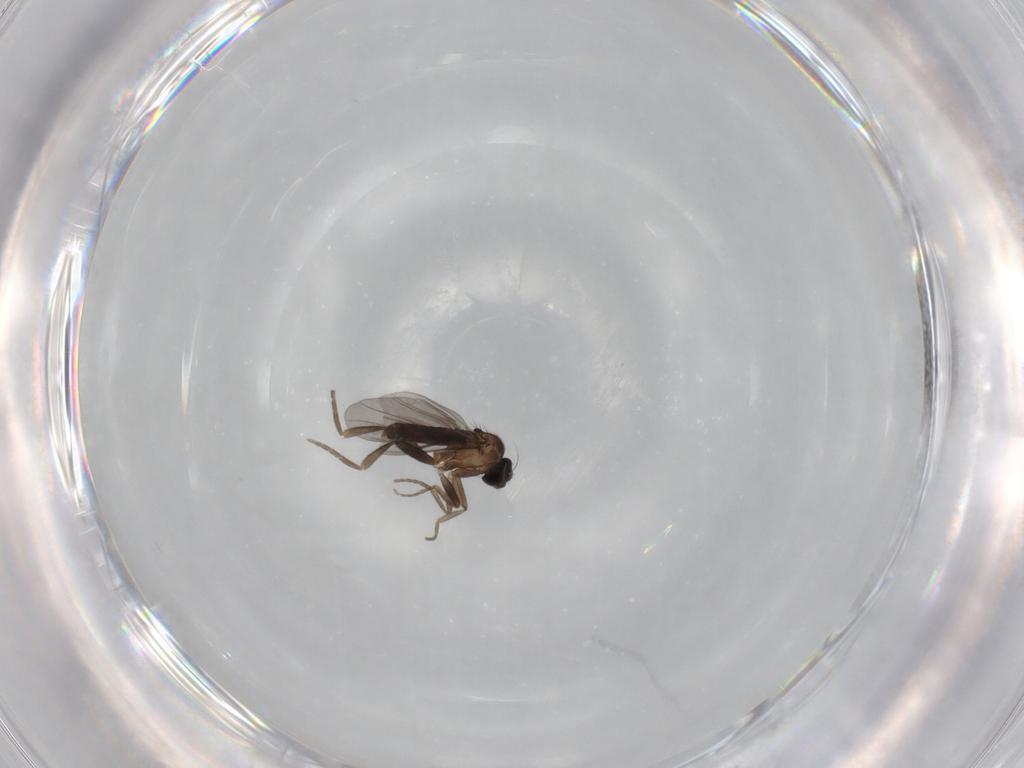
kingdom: Animalia
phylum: Arthropoda
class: Insecta
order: Diptera
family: Phoridae
